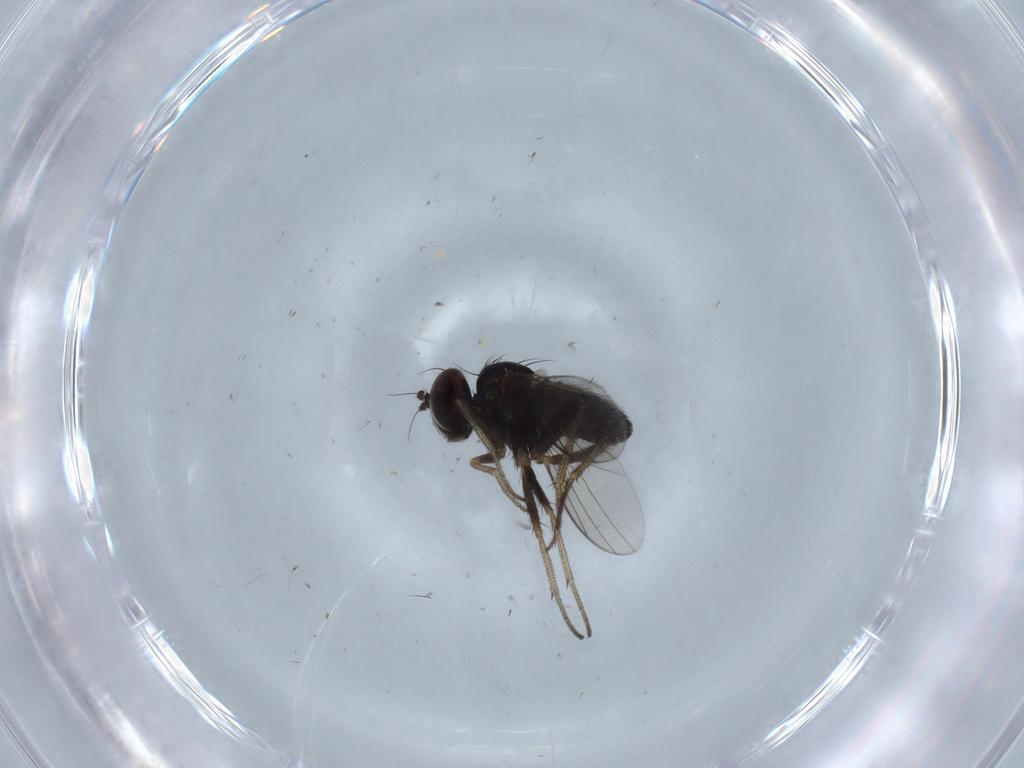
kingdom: Animalia
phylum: Arthropoda
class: Insecta
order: Diptera
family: Dolichopodidae
